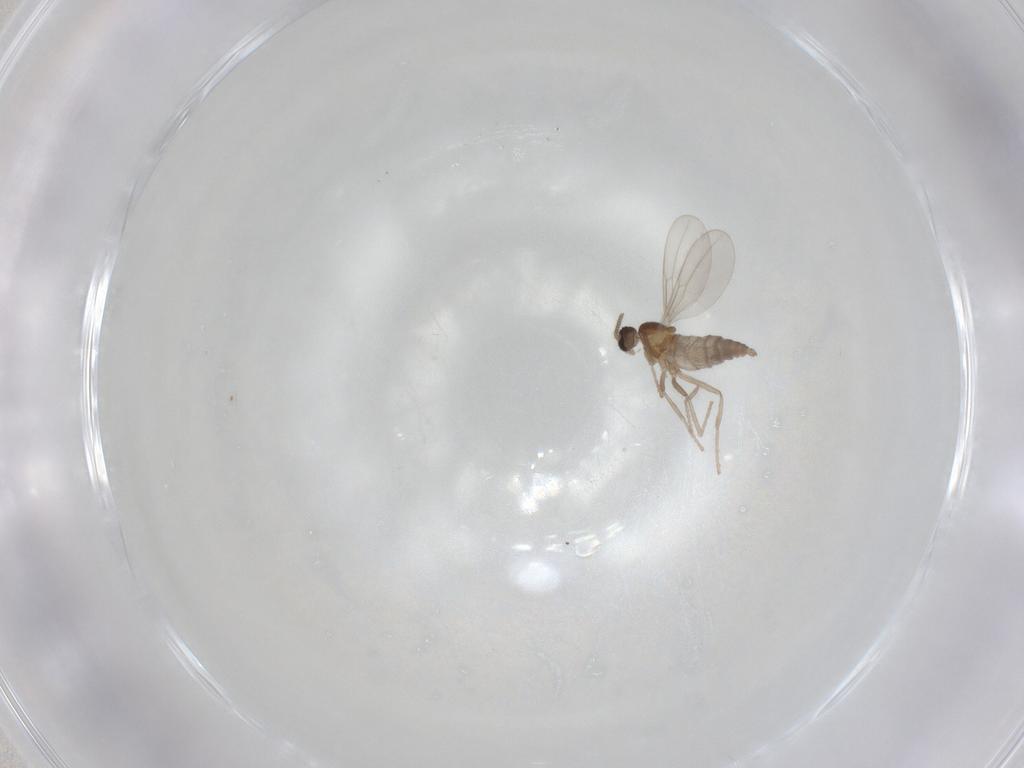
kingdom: Animalia
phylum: Arthropoda
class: Insecta
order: Diptera
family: Cecidomyiidae
